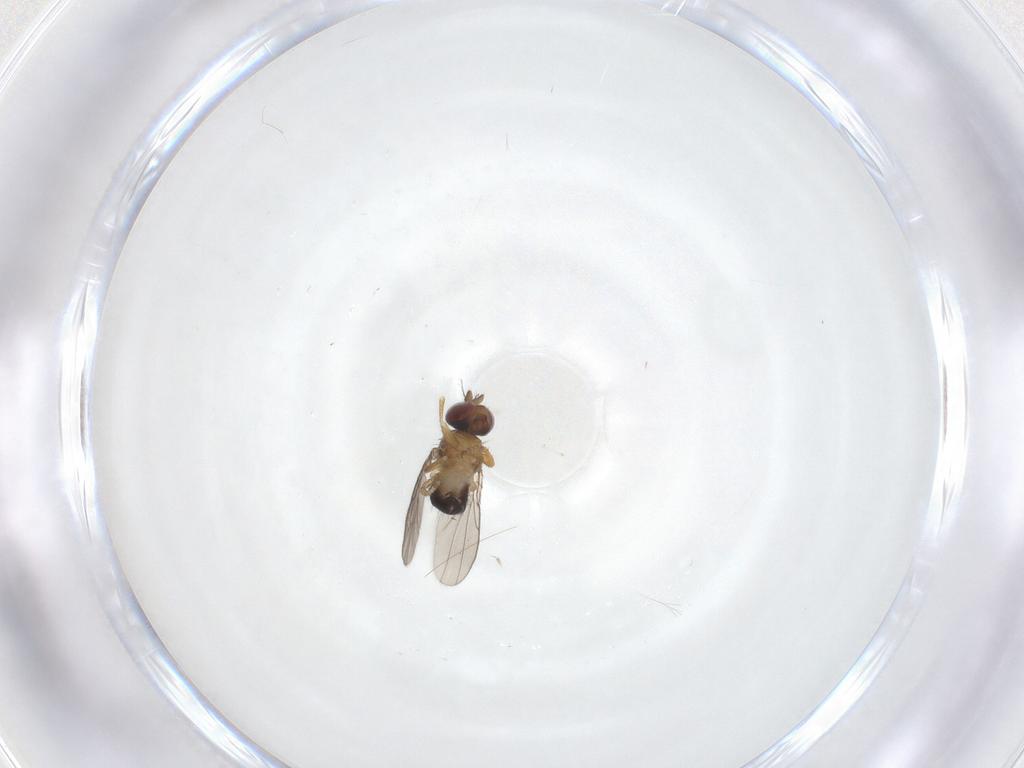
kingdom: Animalia
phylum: Arthropoda
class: Insecta
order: Diptera
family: Ephydridae
